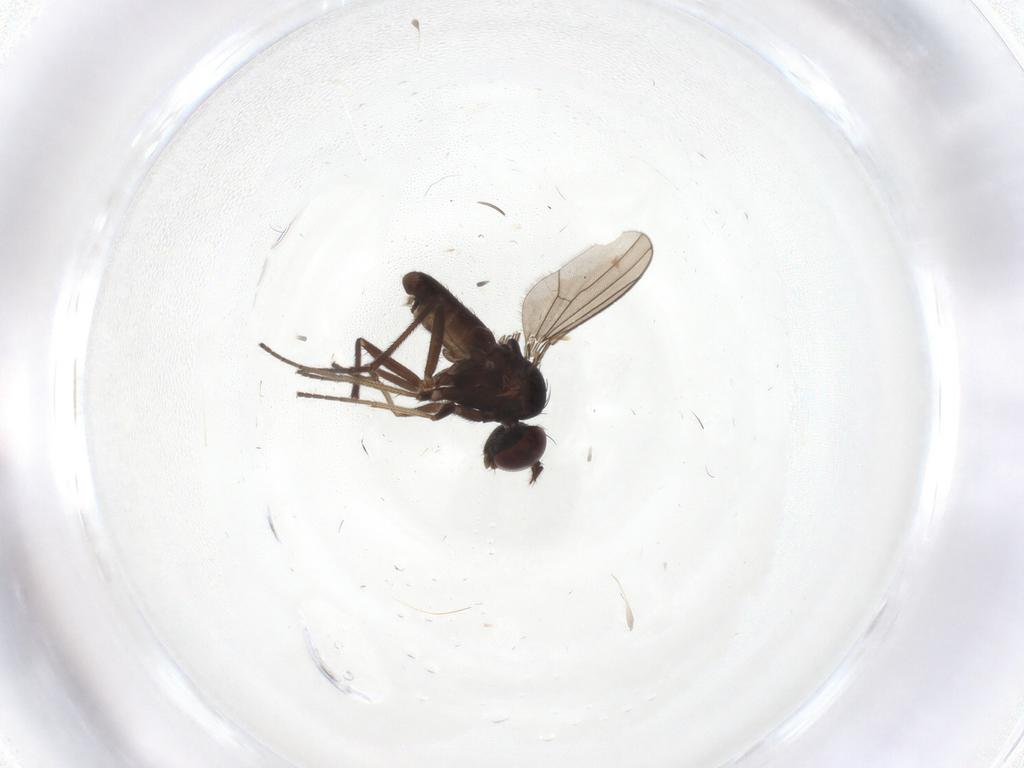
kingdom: Animalia
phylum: Arthropoda
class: Insecta
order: Diptera
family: Dolichopodidae
